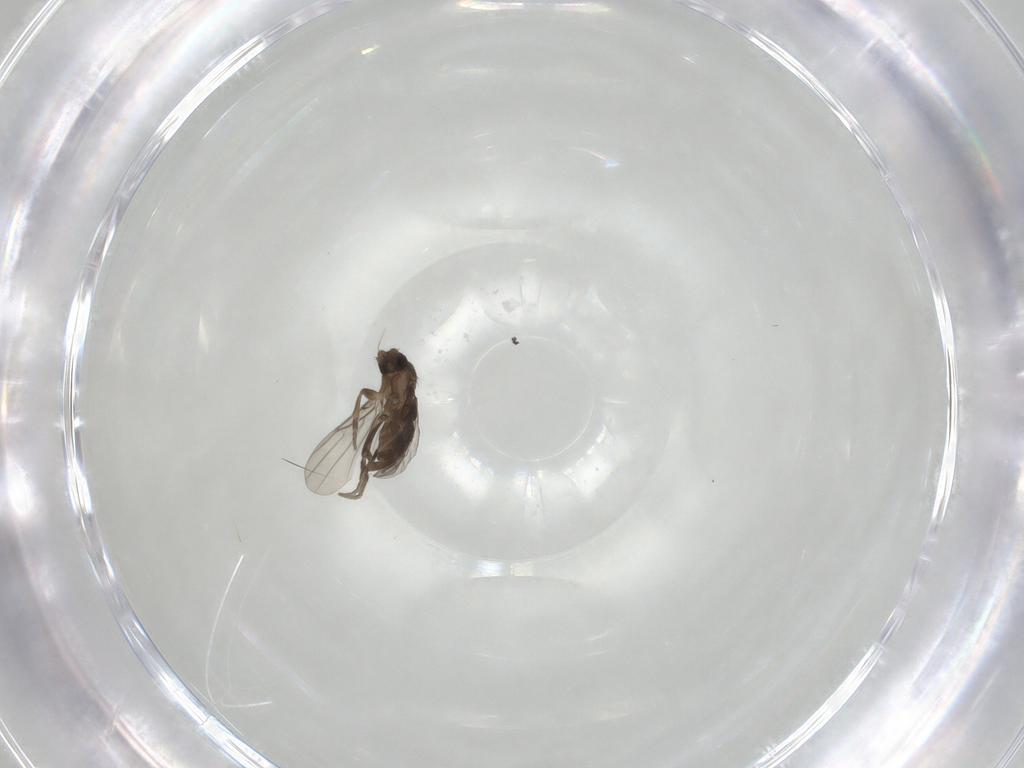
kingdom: Animalia
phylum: Arthropoda
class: Insecta
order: Diptera
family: Phoridae
